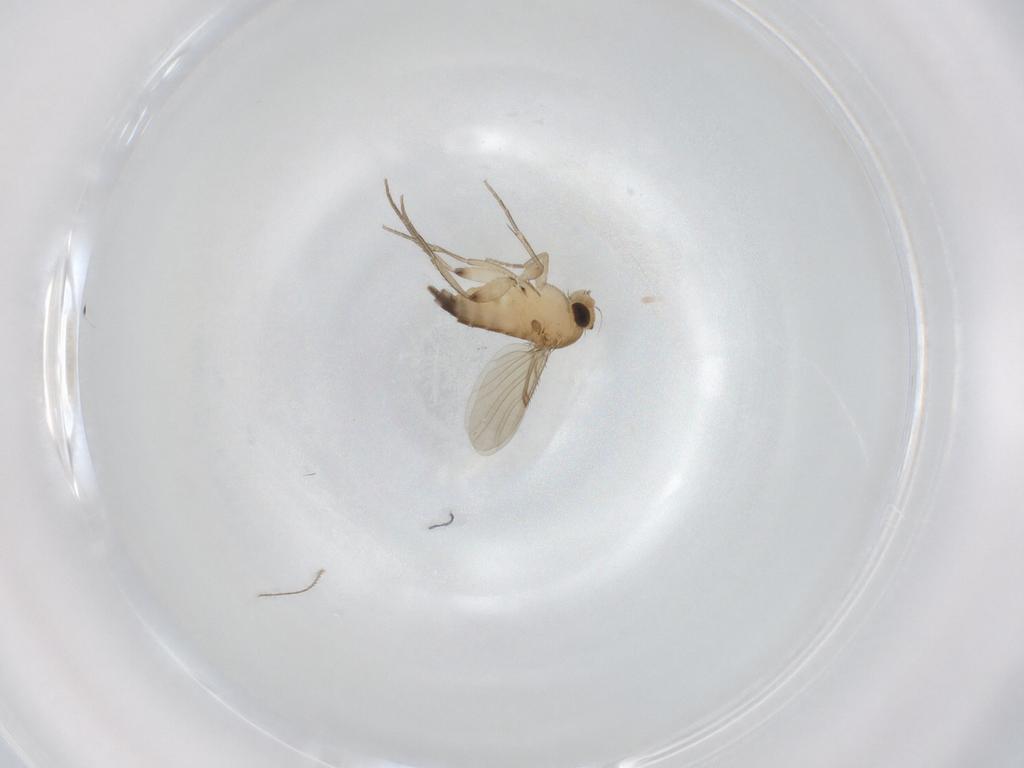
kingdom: Animalia
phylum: Arthropoda
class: Insecta
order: Diptera
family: Phoridae
